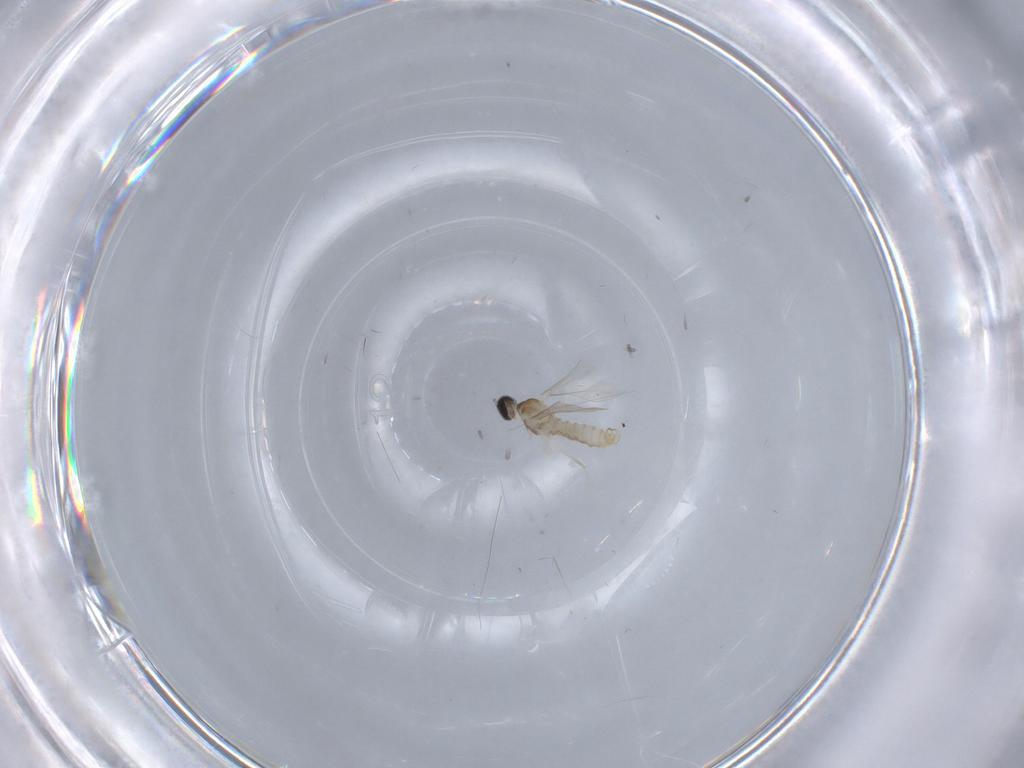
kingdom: Animalia
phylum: Arthropoda
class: Insecta
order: Diptera
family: Cecidomyiidae
